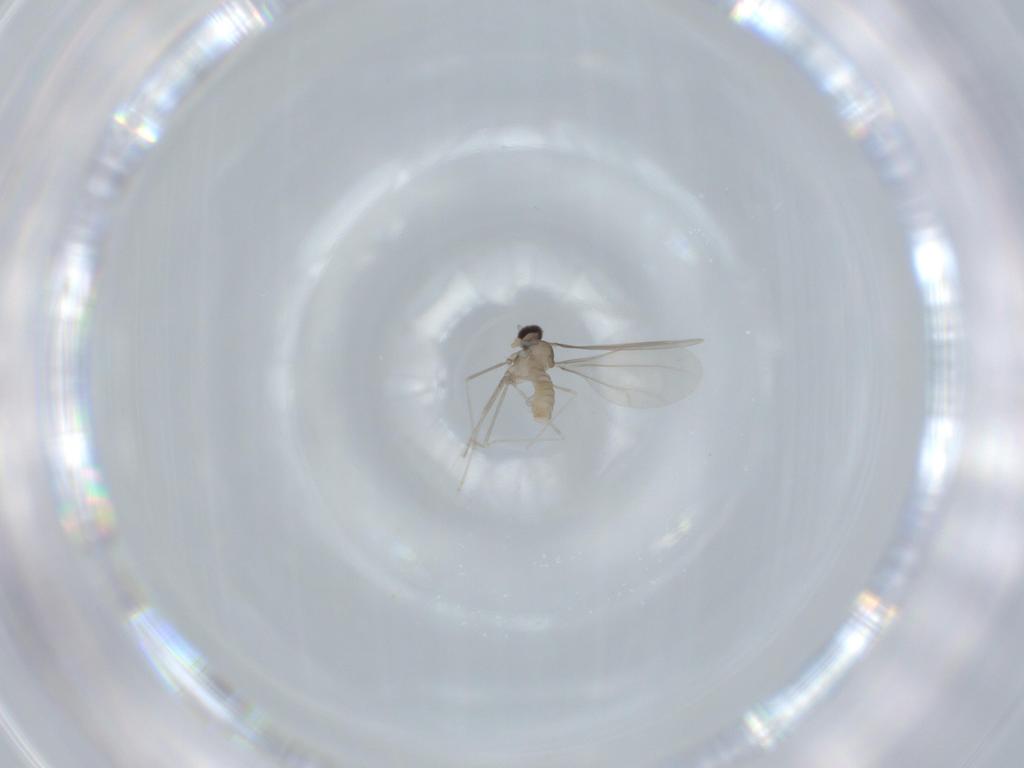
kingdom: Animalia
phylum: Arthropoda
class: Insecta
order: Diptera
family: Cecidomyiidae
